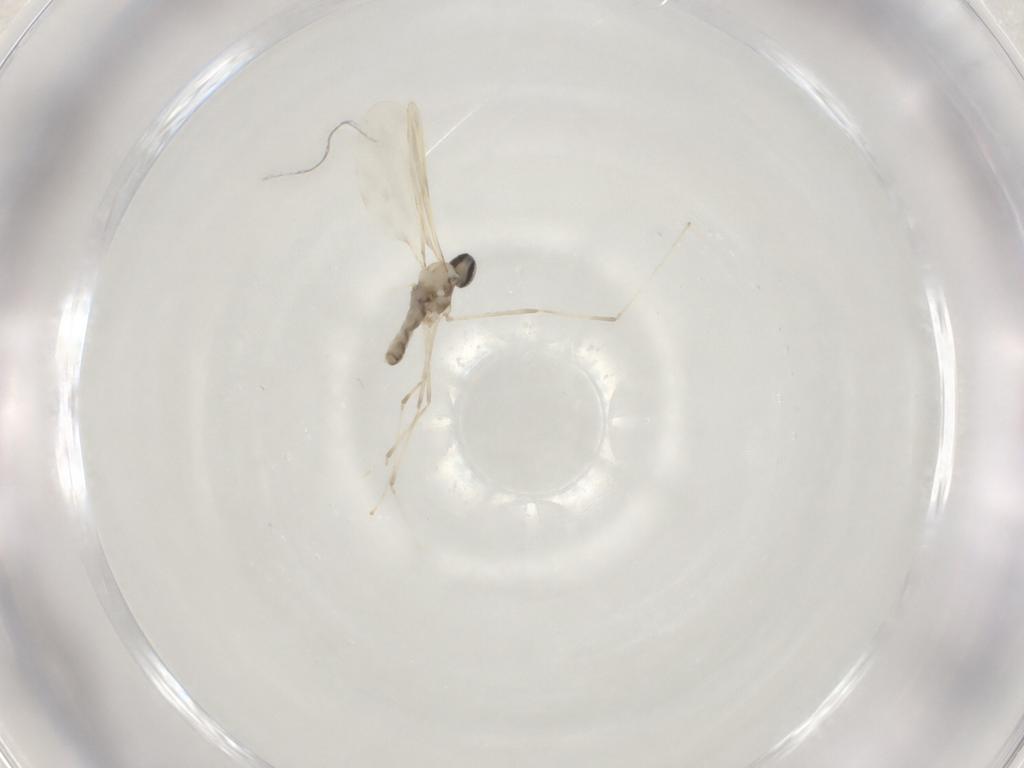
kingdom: Animalia
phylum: Arthropoda
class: Insecta
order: Diptera
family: Cecidomyiidae
